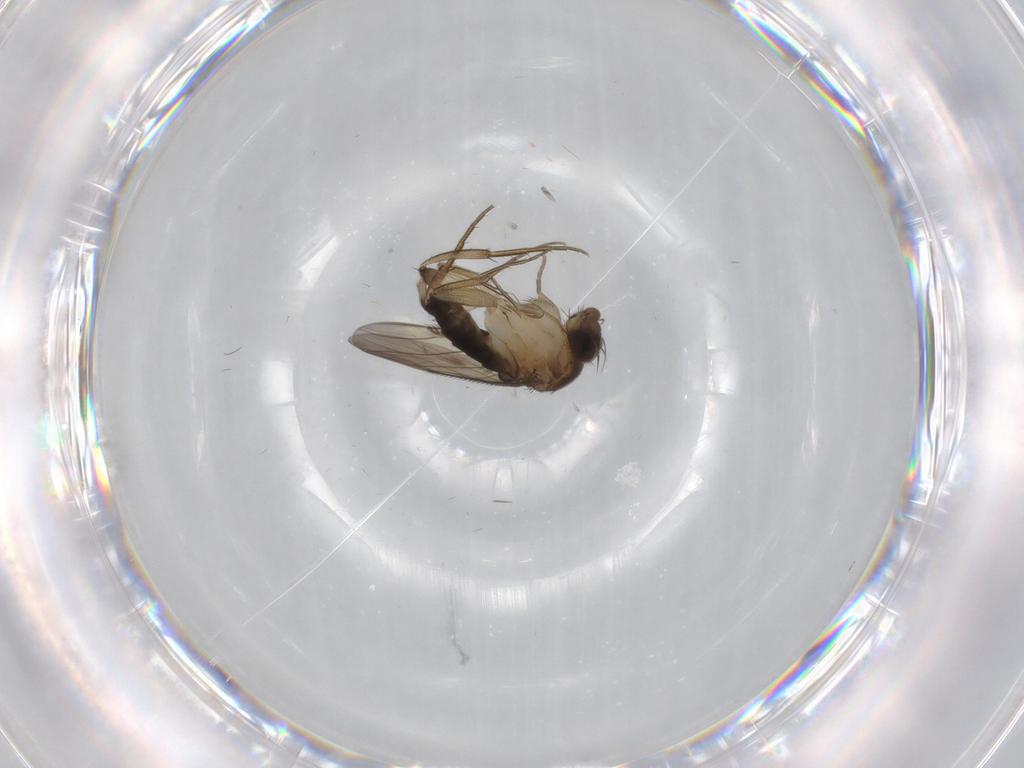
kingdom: Animalia
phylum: Arthropoda
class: Insecta
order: Diptera
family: Phoridae
